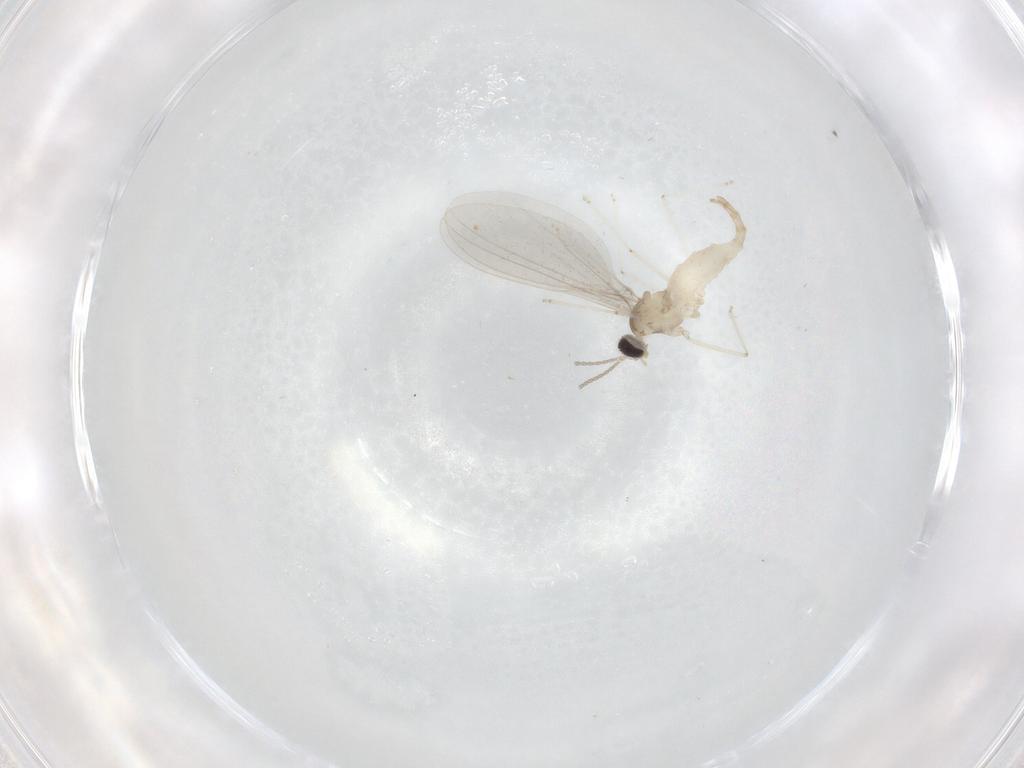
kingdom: Animalia
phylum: Arthropoda
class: Insecta
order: Diptera
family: Cecidomyiidae
